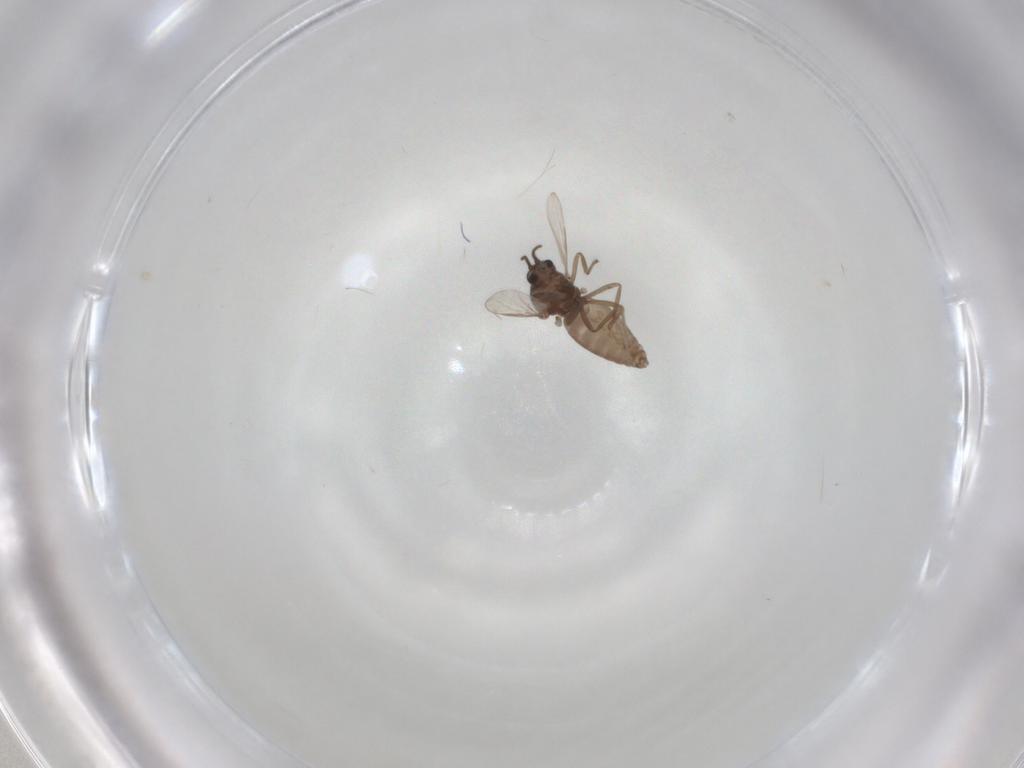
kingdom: Animalia
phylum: Arthropoda
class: Insecta
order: Diptera
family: Ceratopogonidae
